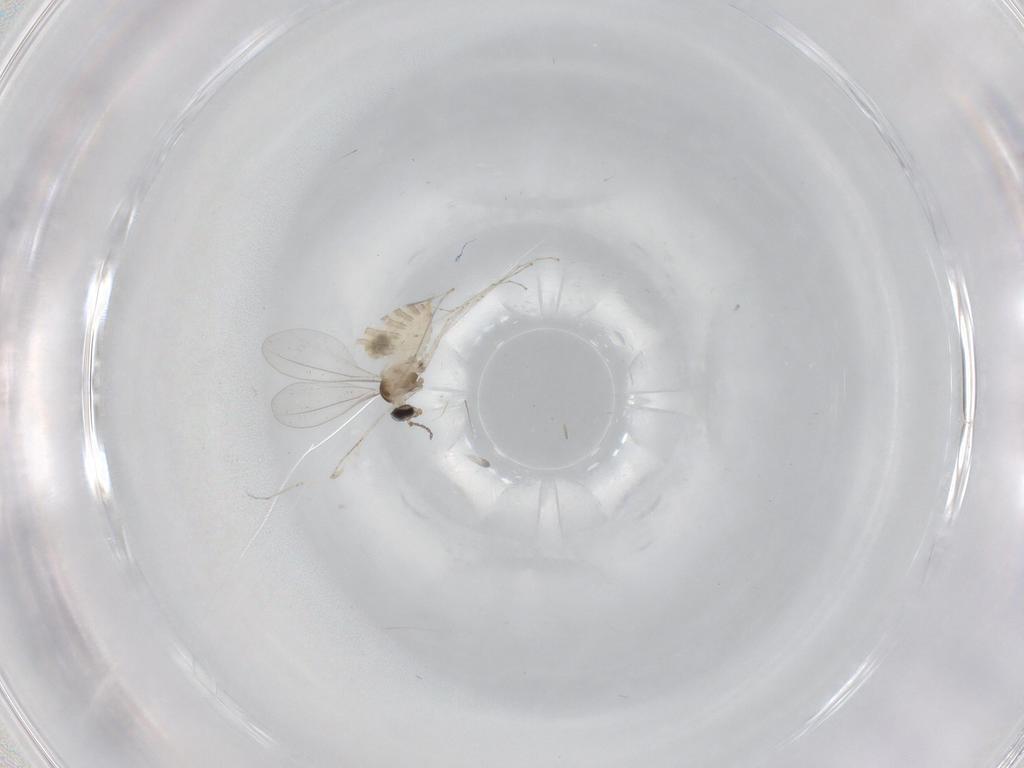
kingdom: Animalia
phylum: Arthropoda
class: Insecta
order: Diptera
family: Cecidomyiidae
